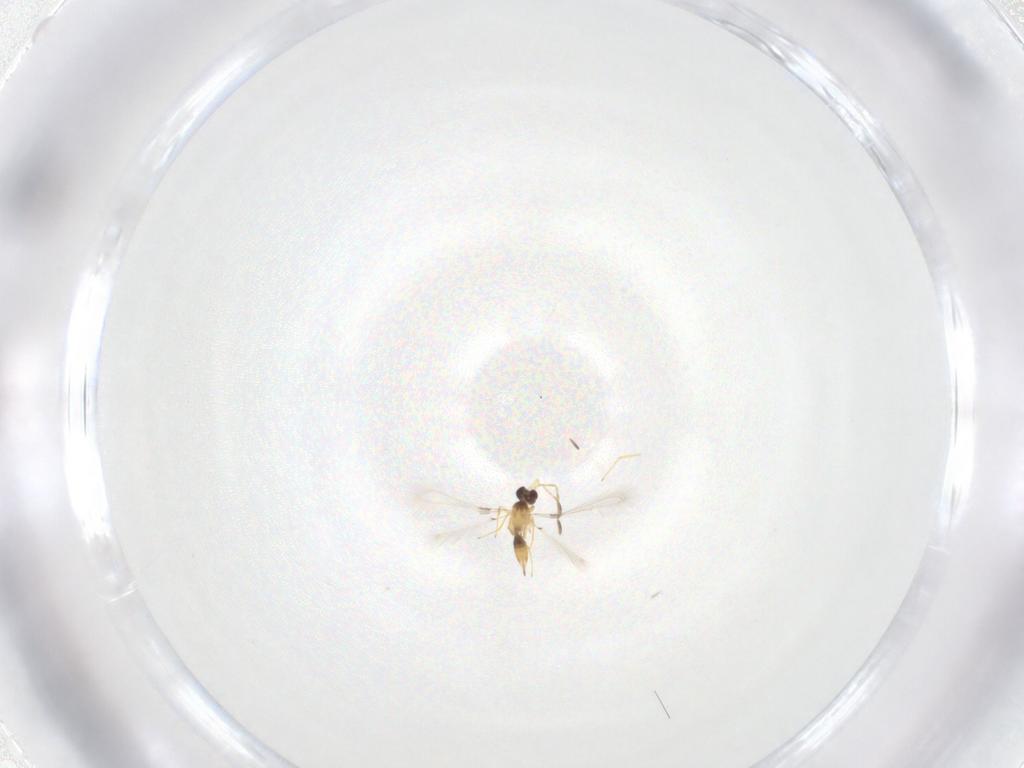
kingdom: Animalia
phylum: Arthropoda
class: Insecta
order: Hymenoptera
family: Mymaridae
